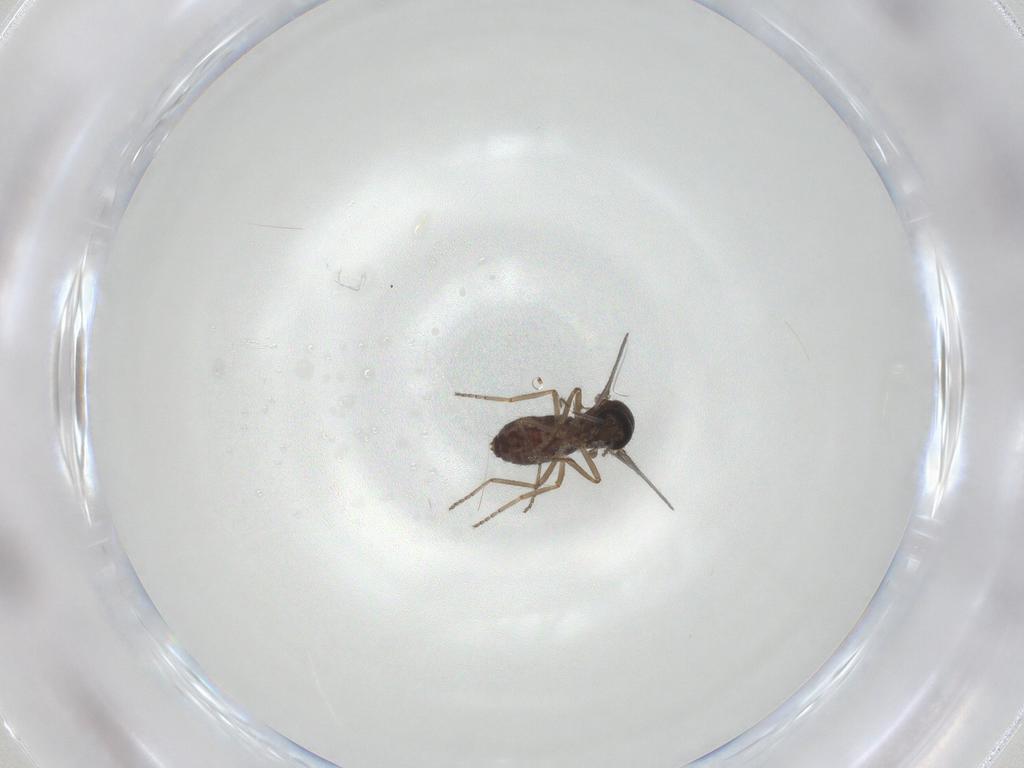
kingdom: Animalia
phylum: Arthropoda
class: Insecta
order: Diptera
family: Ceratopogonidae
